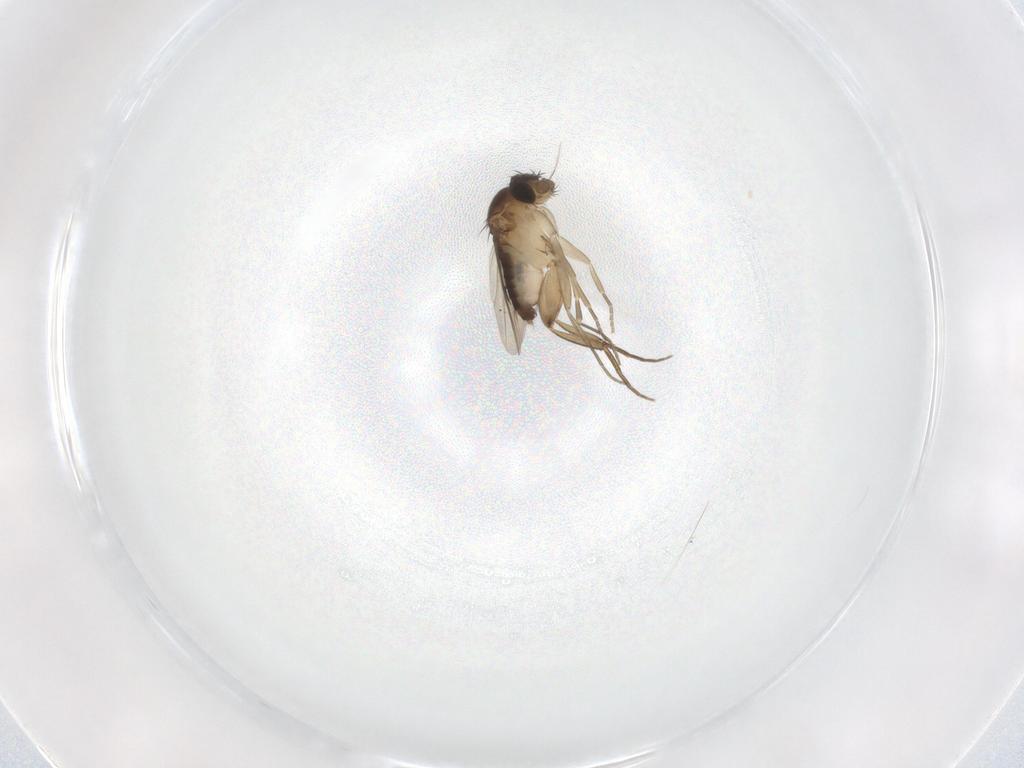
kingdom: Animalia
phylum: Arthropoda
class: Insecta
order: Diptera
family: Phoridae
